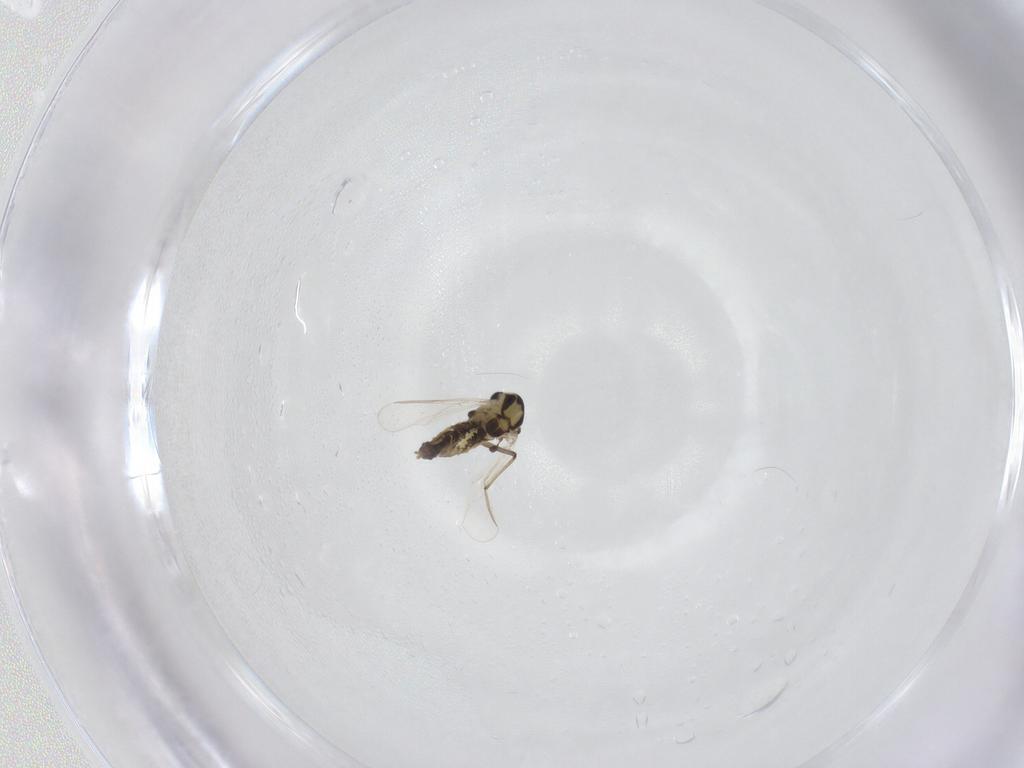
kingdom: Animalia
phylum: Arthropoda
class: Insecta
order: Diptera
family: Chironomidae
